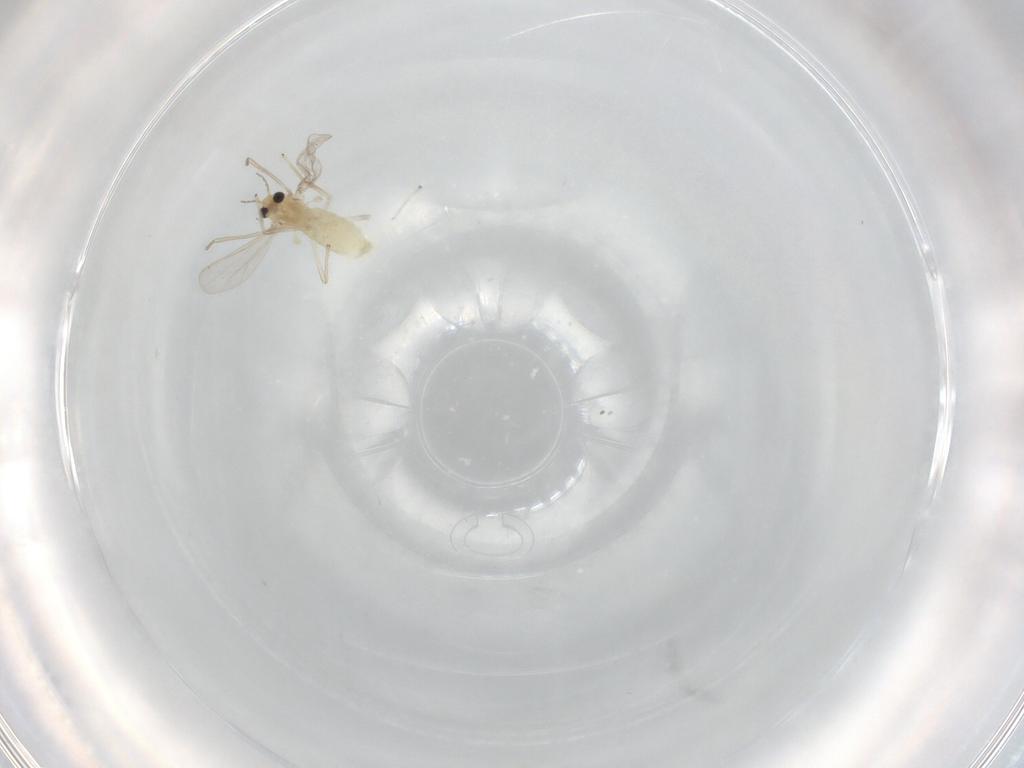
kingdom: Animalia
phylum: Arthropoda
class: Insecta
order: Diptera
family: Chironomidae
